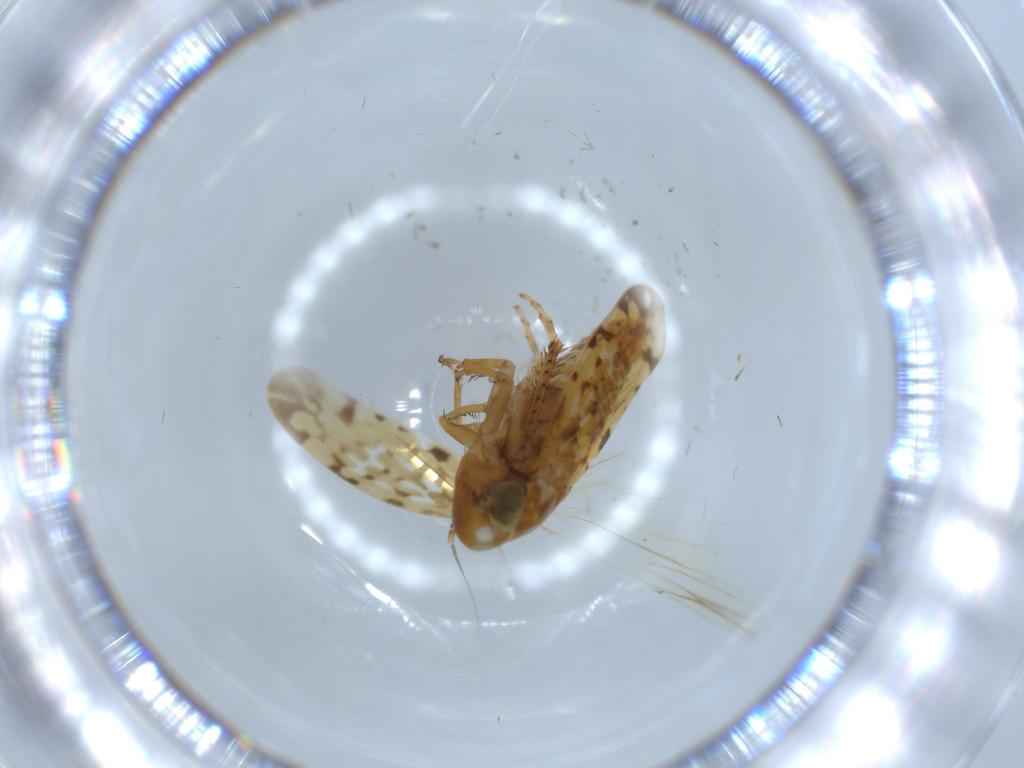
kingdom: Animalia
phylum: Arthropoda
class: Insecta
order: Hemiptera
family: Cicadellidae
